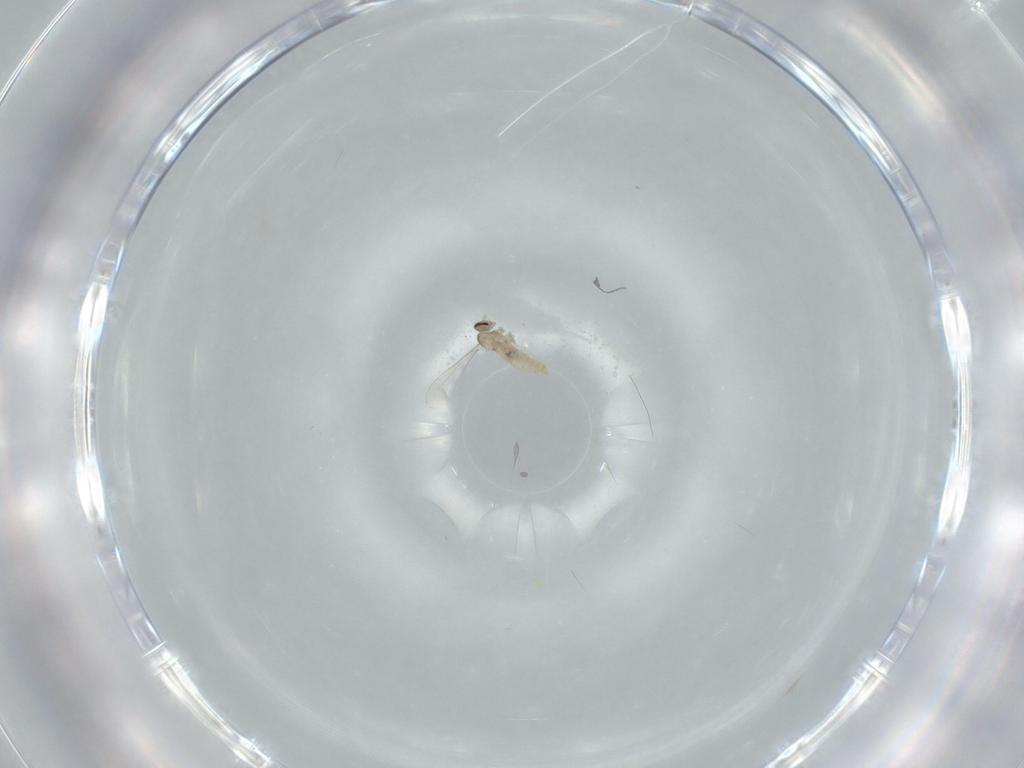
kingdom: Animalia
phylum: Arthropoda
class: Insecta
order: Diptera
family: Cecidomyiidae
